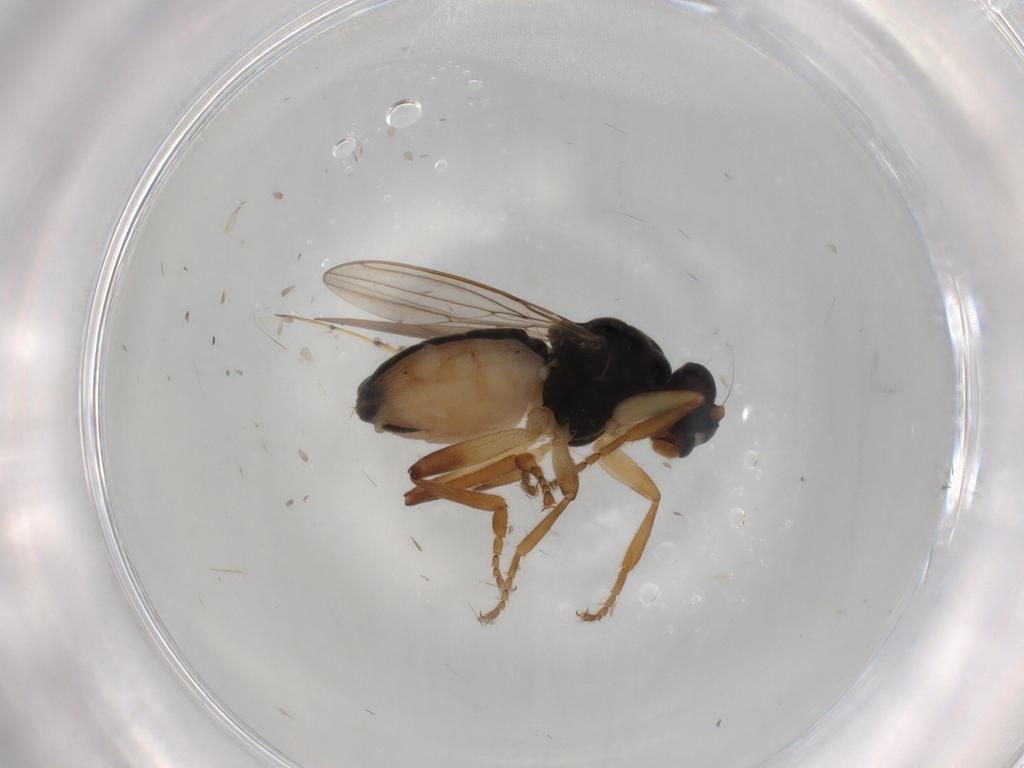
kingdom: Animalia
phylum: Arthropoda
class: Insecta
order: Diptera
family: Sphaeroceridae
